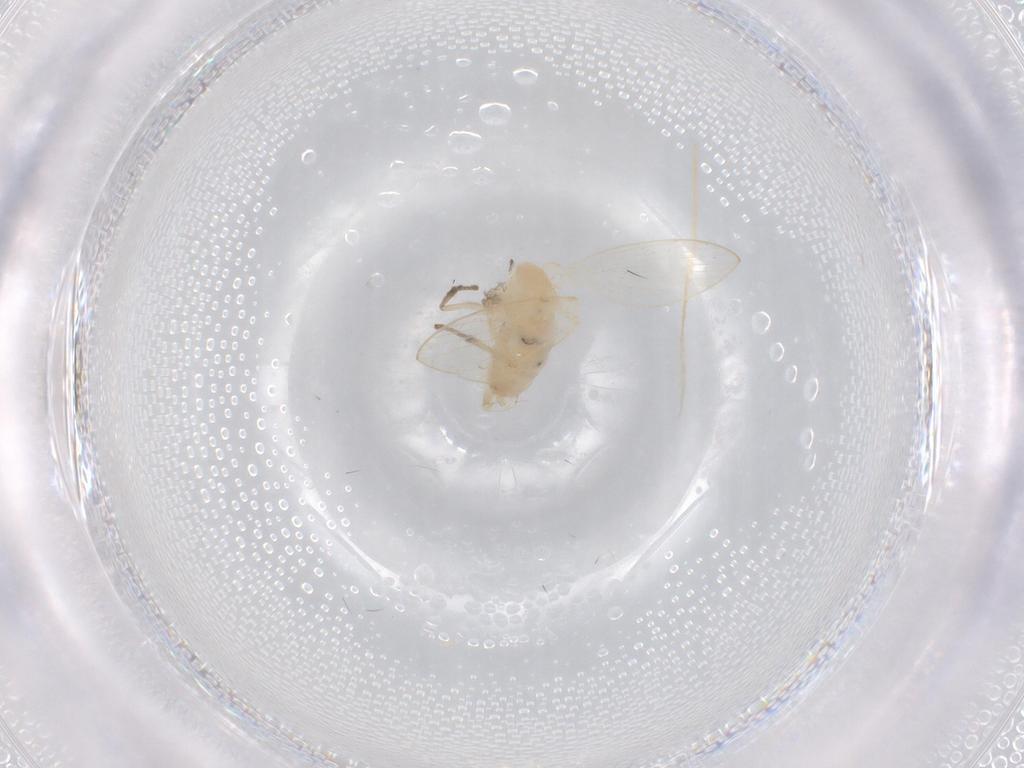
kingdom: Animalia
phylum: Arthropoda
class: Insecta
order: Diptera
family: Psychodidae
